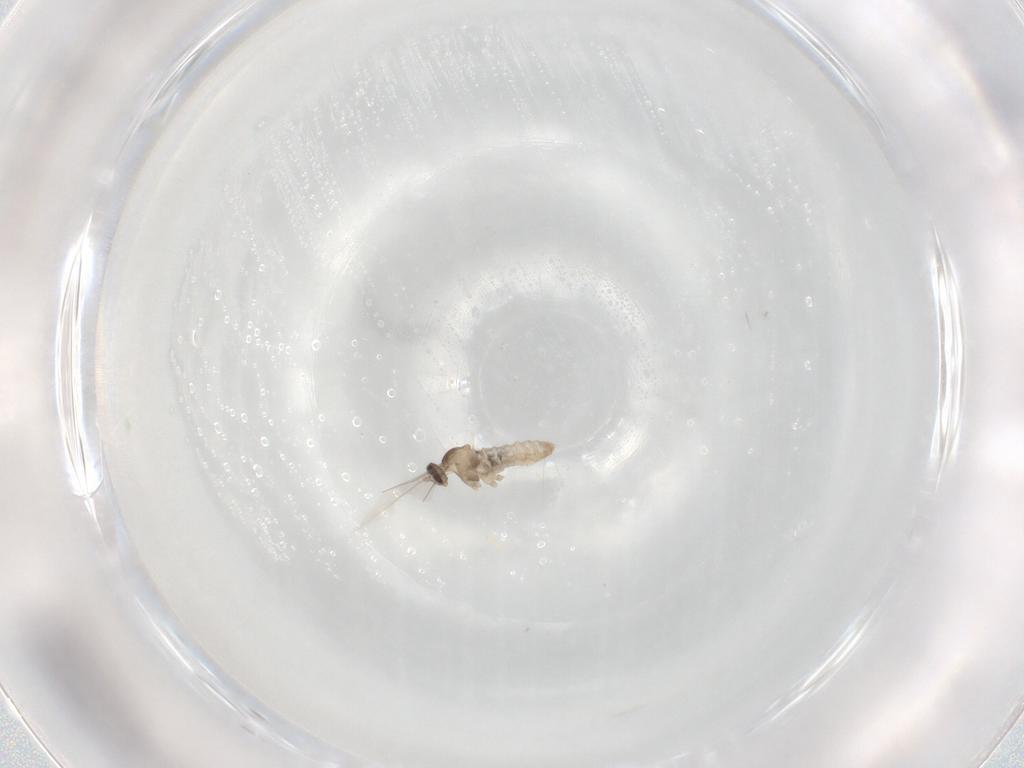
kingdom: Animalia
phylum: Arthropoda
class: Insecta
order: Diptera
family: Cecidomyiidae
